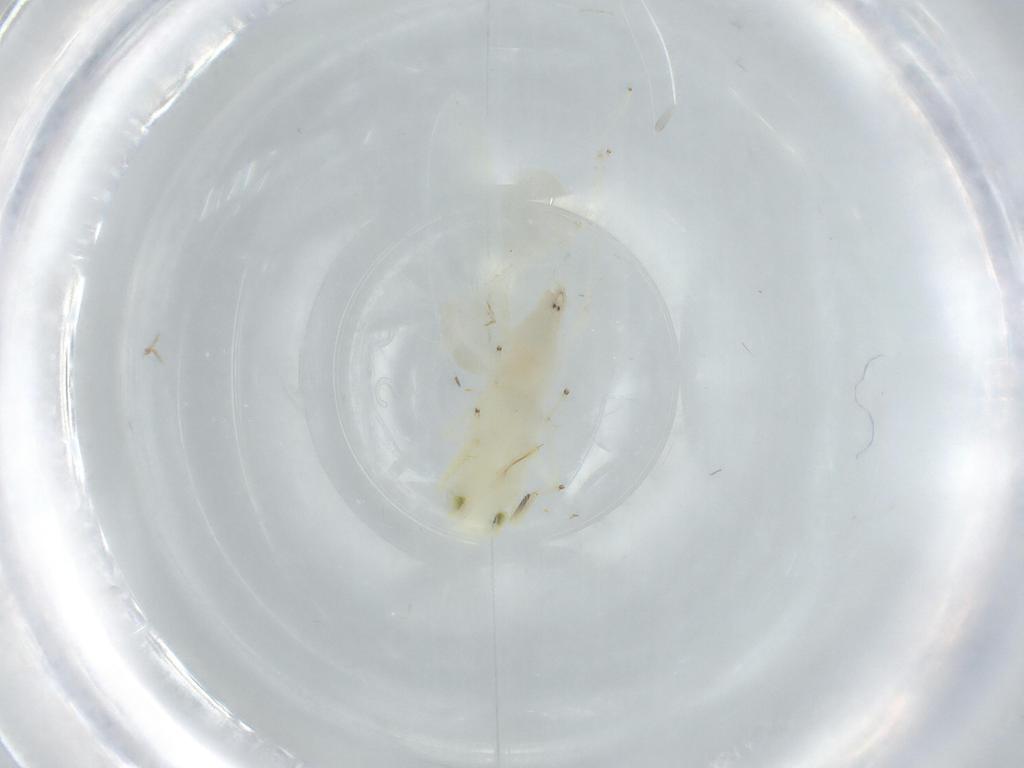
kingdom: Animalia
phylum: Arthropoda
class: Insecta
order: Hemiptera
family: Cicadellidae
